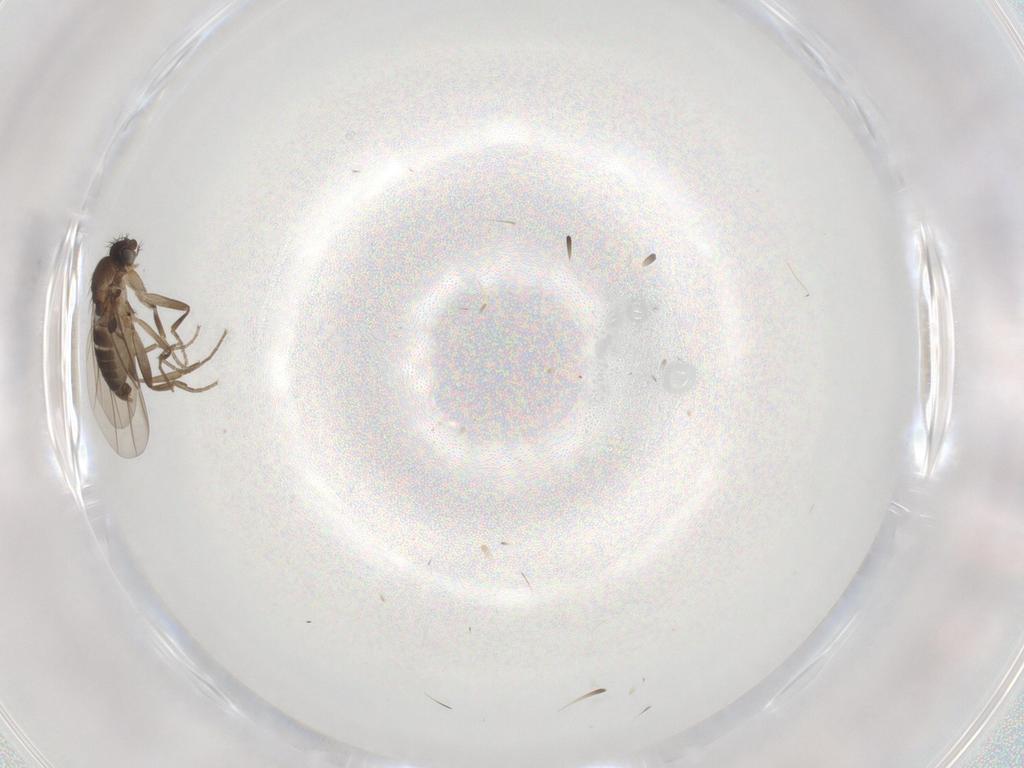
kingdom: Animalia
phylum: Arthropoda
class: Insecta
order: Diptera
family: Phoridae
